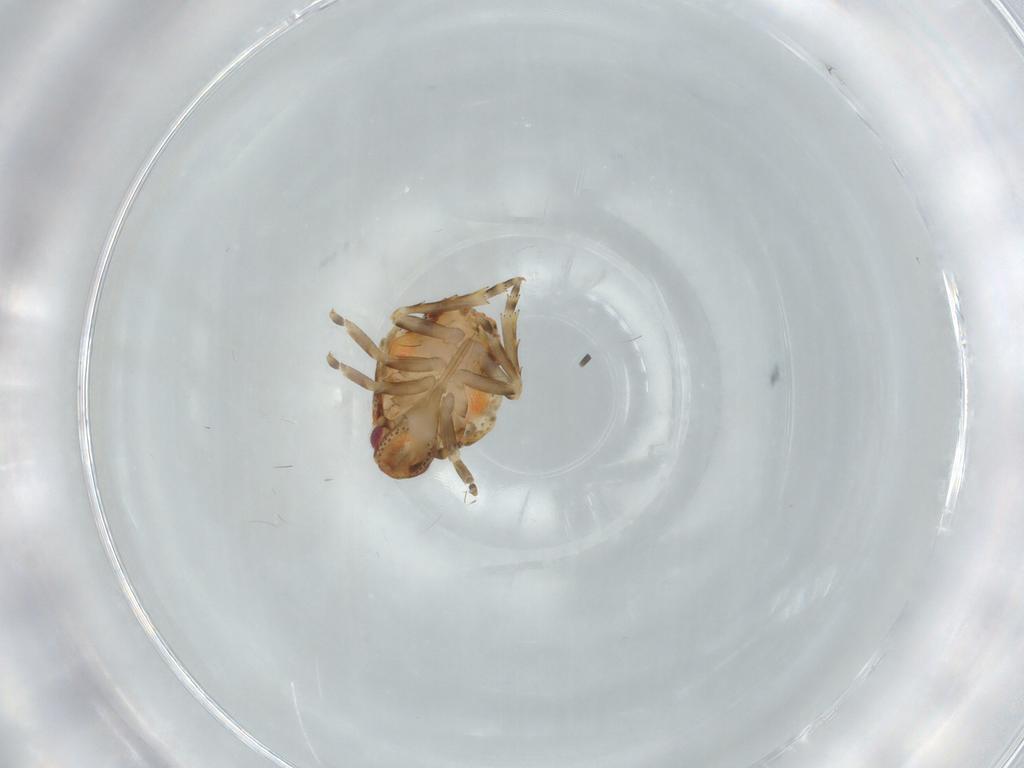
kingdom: Animalia
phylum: Arthropoda
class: Insecta
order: Hemiptera
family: Flatidae
